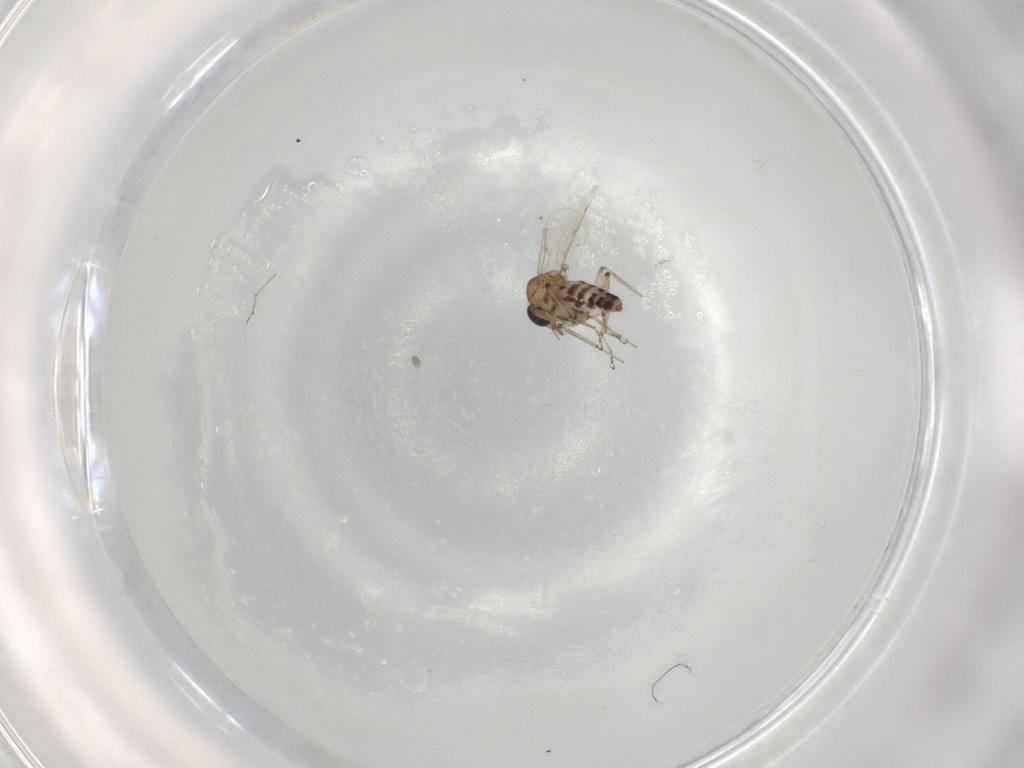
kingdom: Animalia
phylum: Arthropoda
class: Insecta
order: Diptera
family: Ceratopogonidae
